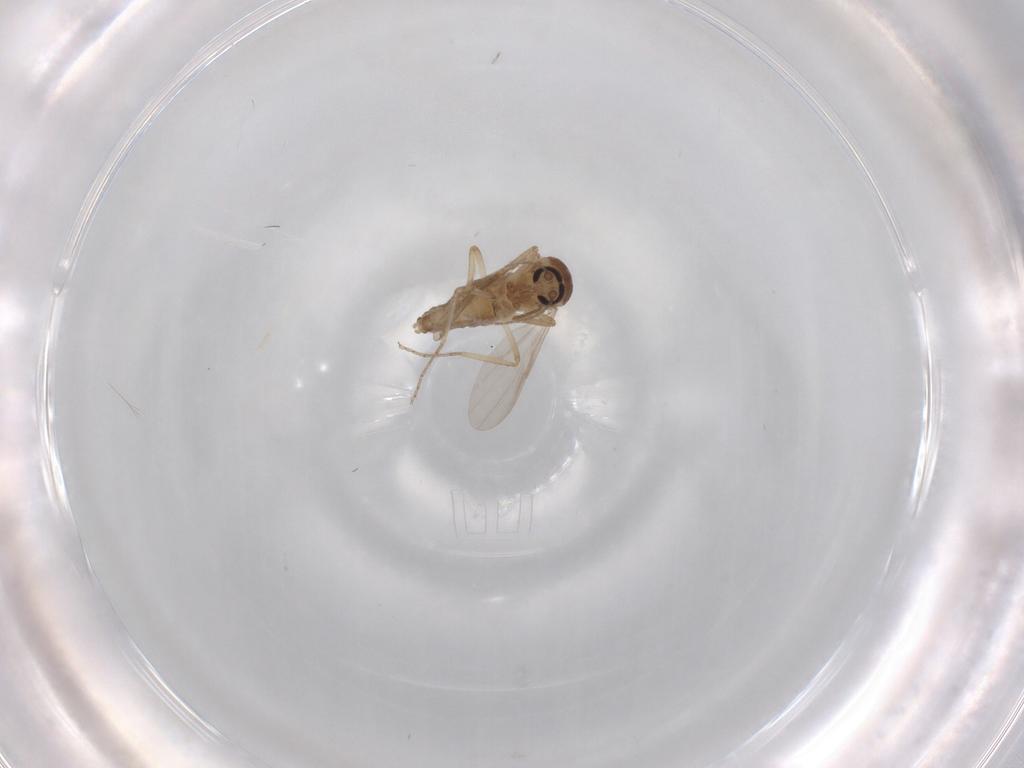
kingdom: Animalia
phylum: Arthropoda
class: Insecta
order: Diptera
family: Ceratopogonidae
